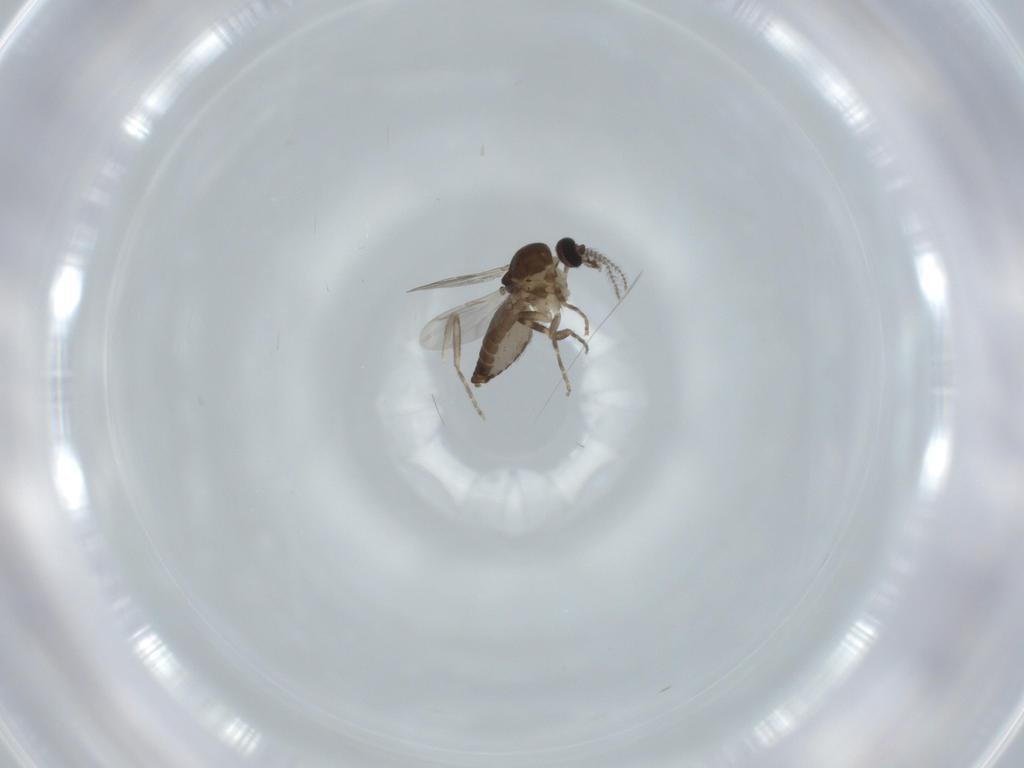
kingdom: Animalia
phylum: Arthropoda
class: Insecta
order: Diptera
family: Ceratopogonidae
